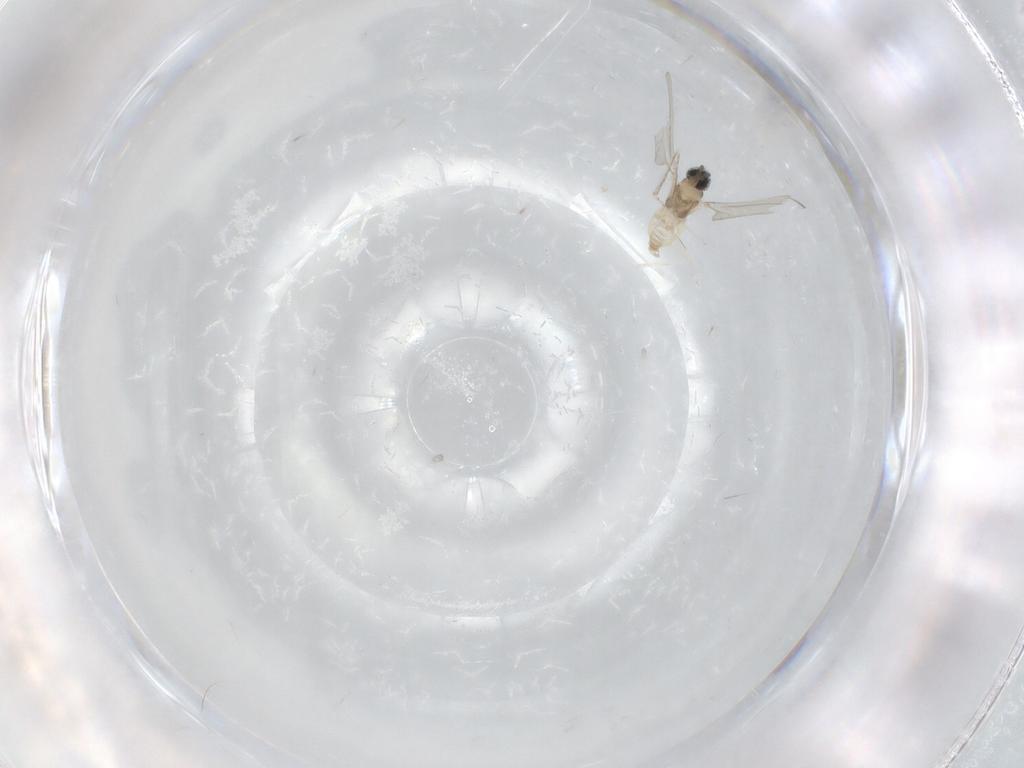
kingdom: Animalia
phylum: Arthropoda
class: Insecta
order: Diptera
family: Cecidomyiidae
